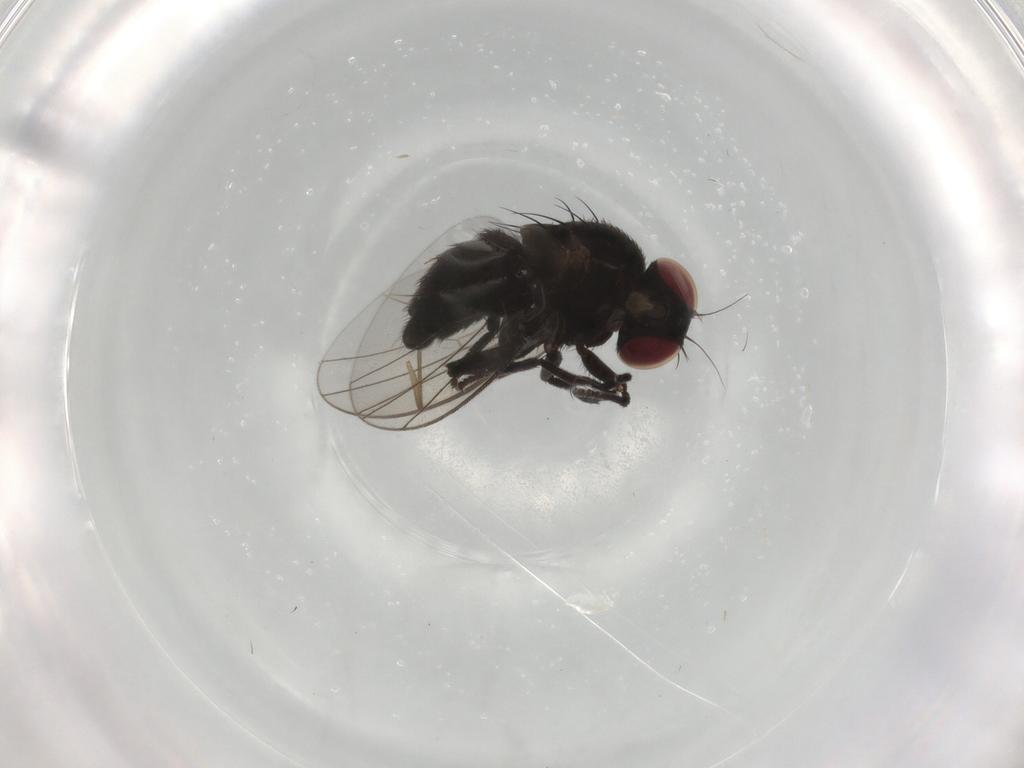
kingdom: Animalia
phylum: Arthropoda
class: Insecta
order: Diptera
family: Agromyzidae
